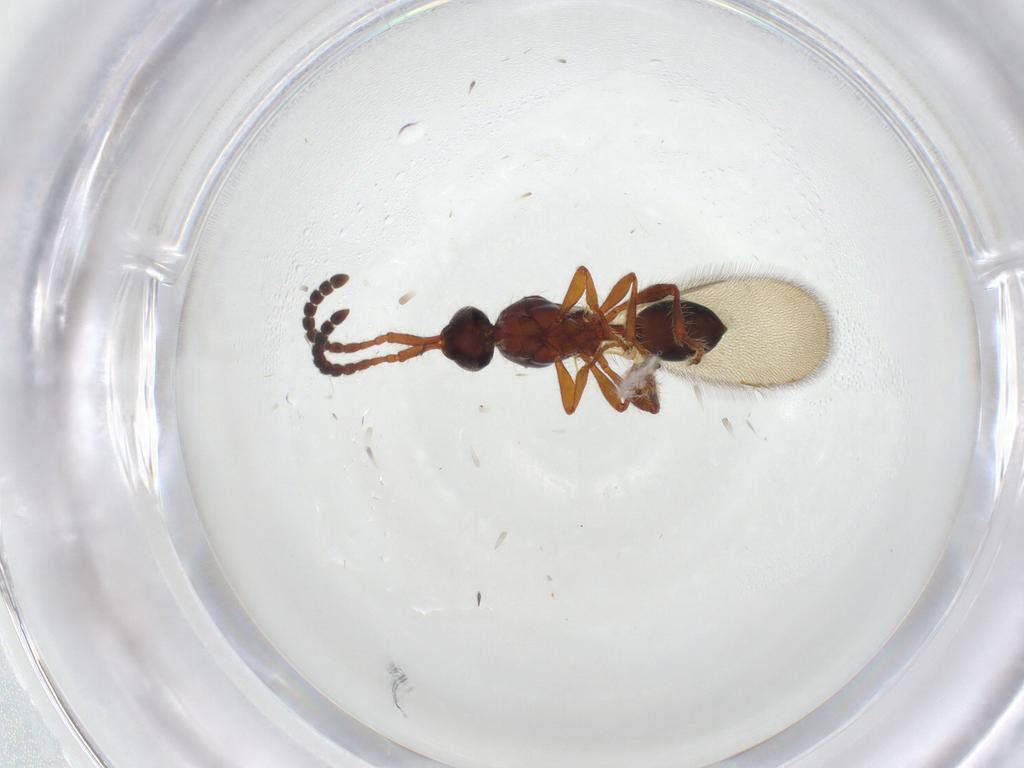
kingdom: Animalia
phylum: Arthropoda
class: Insecta
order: Hymenoptera
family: Diapriidae
